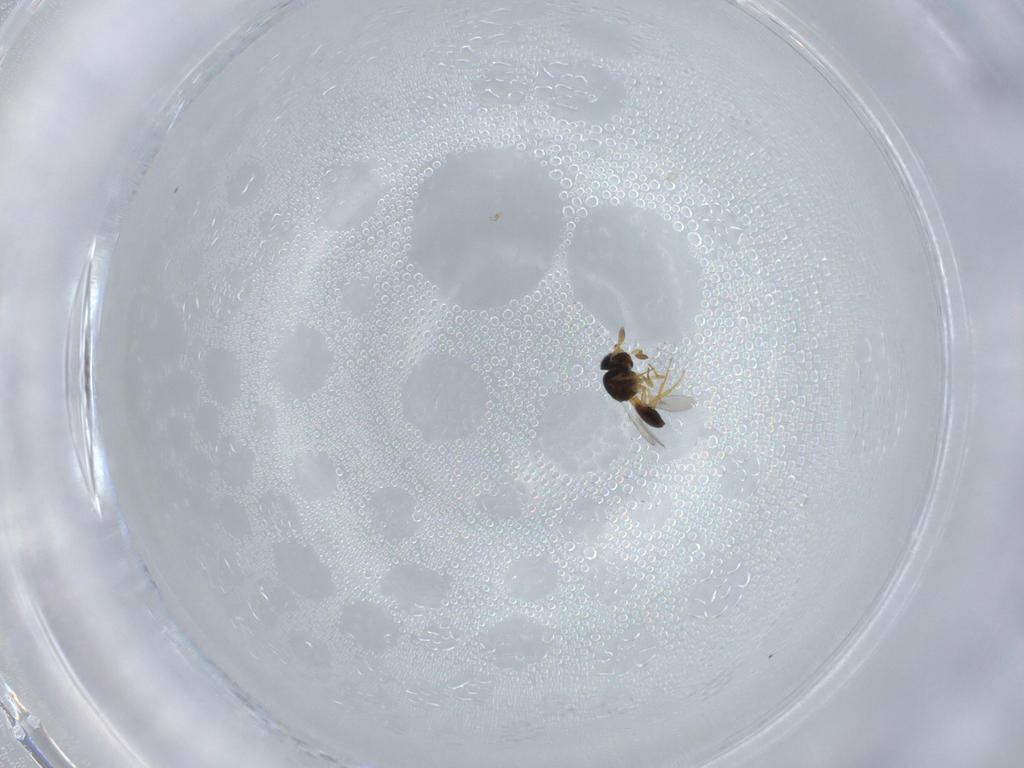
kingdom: Animalia
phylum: Arthropoda
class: Insecta
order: Hymenoptera
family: Scelionidae
